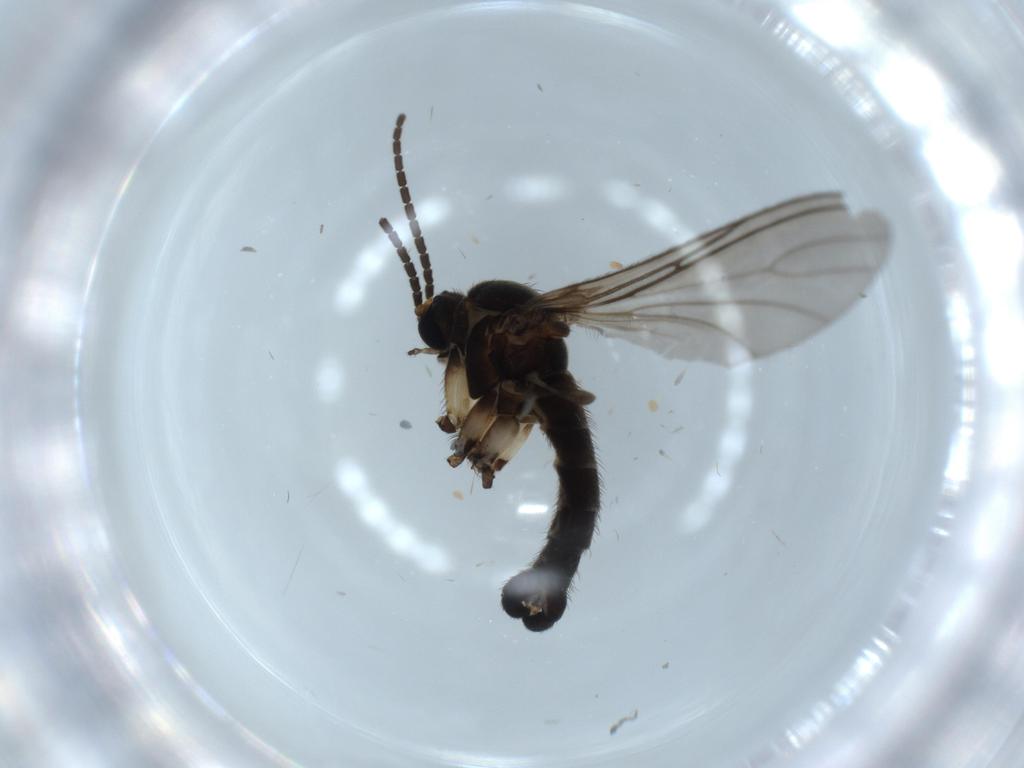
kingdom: Animalia
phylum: Arthropoda
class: Insecta
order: Diptera
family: Sciaridae
